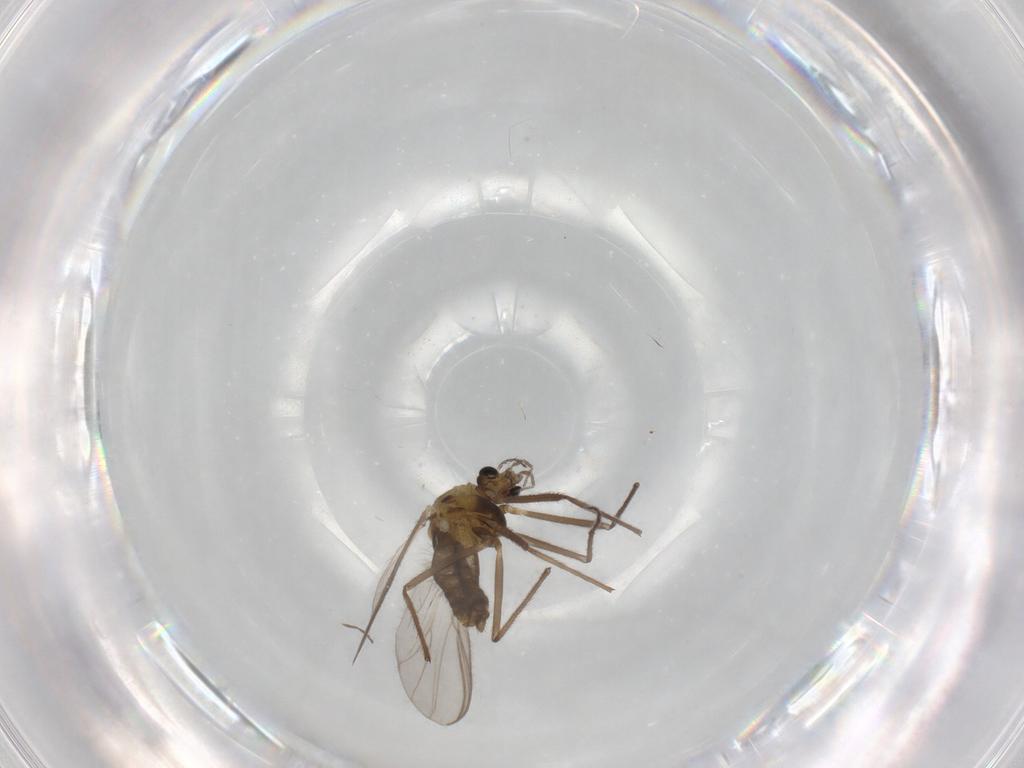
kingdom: Animalia
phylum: Arthropoda
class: Insecta
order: Diptera
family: Chironomidae
